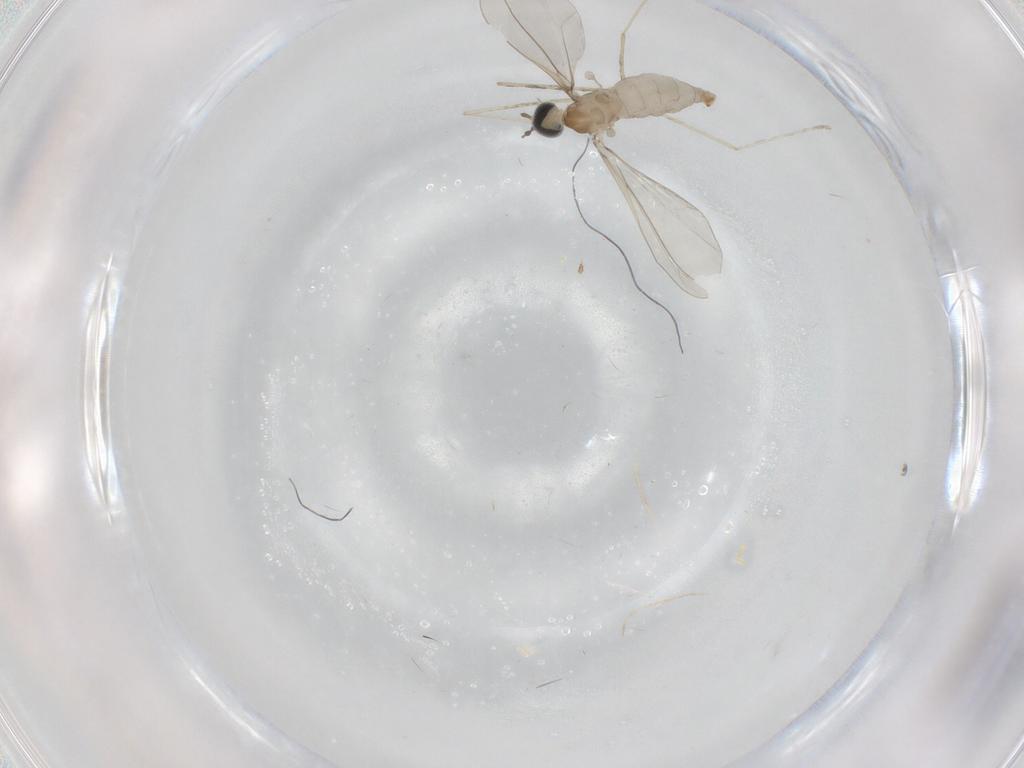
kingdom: Animalia
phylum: Arthropoda
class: Insecta
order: Diptera
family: Cecidomyiidae
